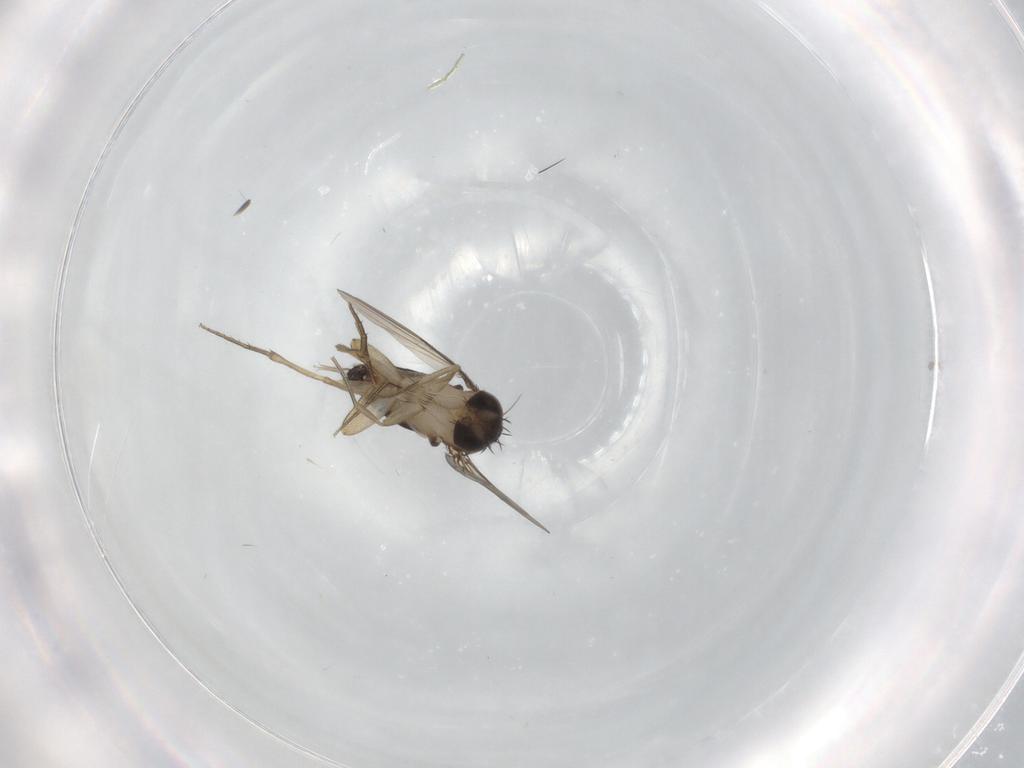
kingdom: Animalia
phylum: Arthropoda
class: Insecta
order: Diptera
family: Phoridae
